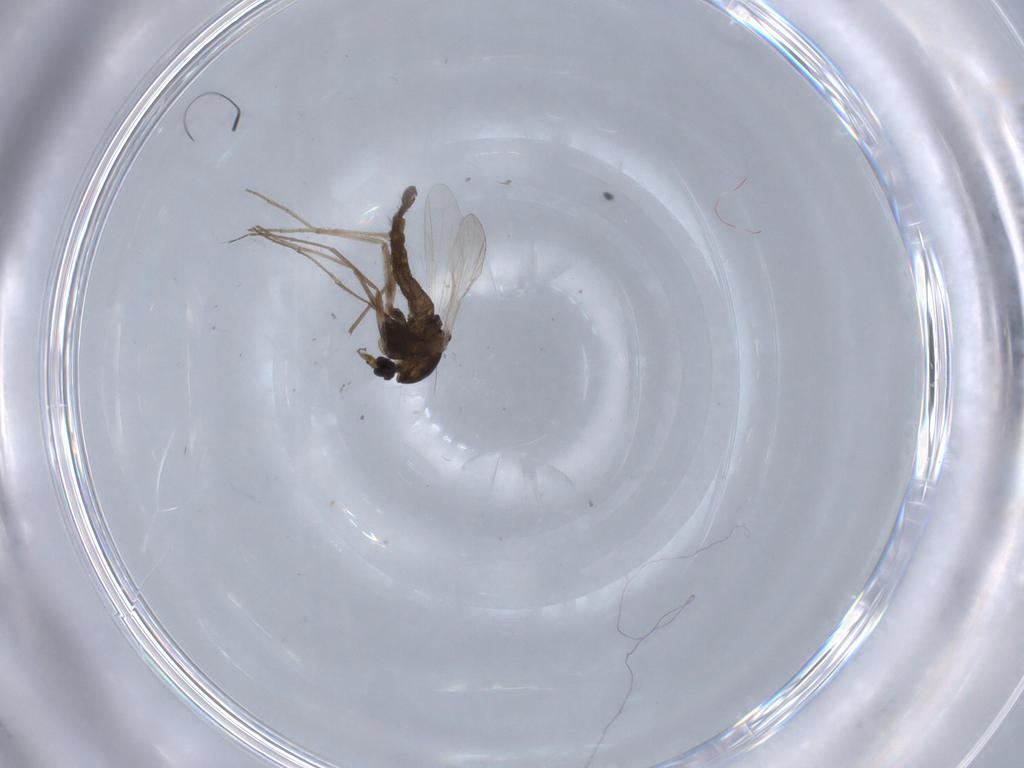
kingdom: Animalia
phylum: Arthropoda
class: Insecta
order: Diptera
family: Chironomidae
